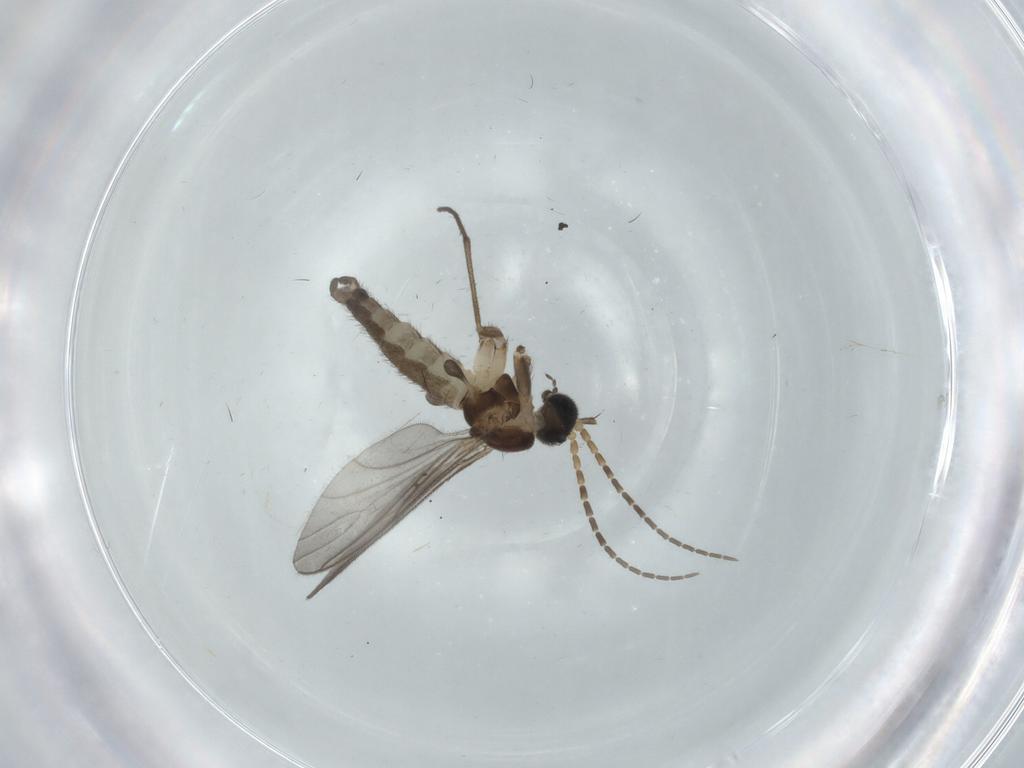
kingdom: Animalia
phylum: Arthropoda
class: Insecta
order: Diptera
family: Sciaridae
